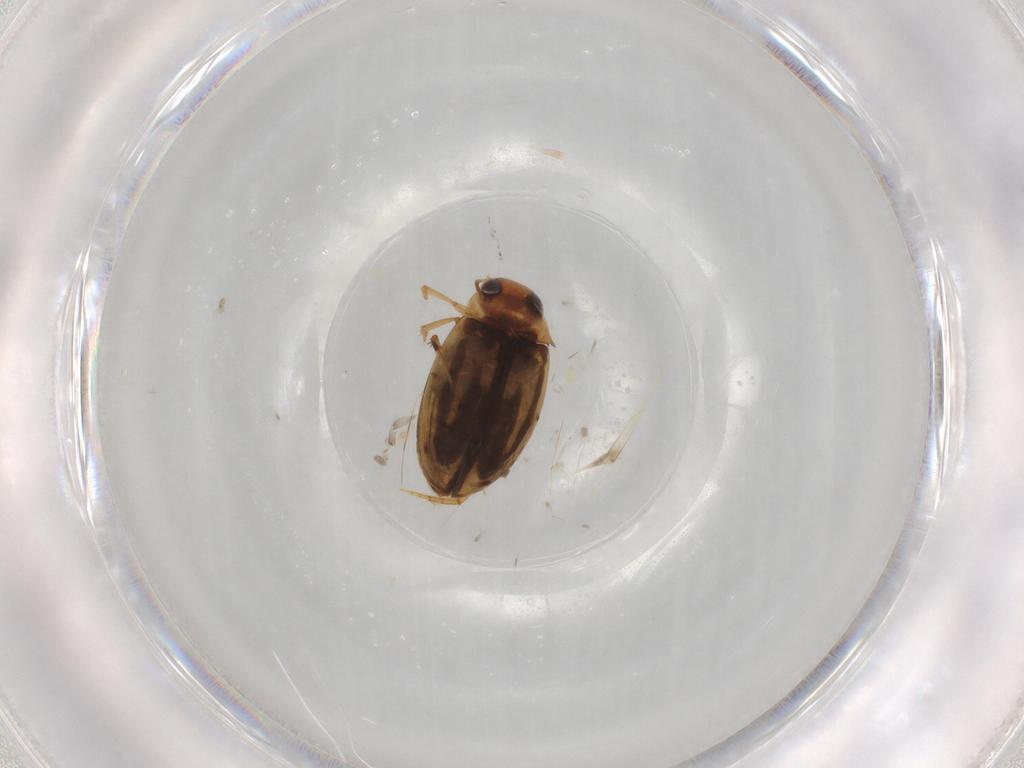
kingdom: Animalia
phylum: Arthropoda
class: Insecta
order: Coleoptera
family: Dytiscidae
